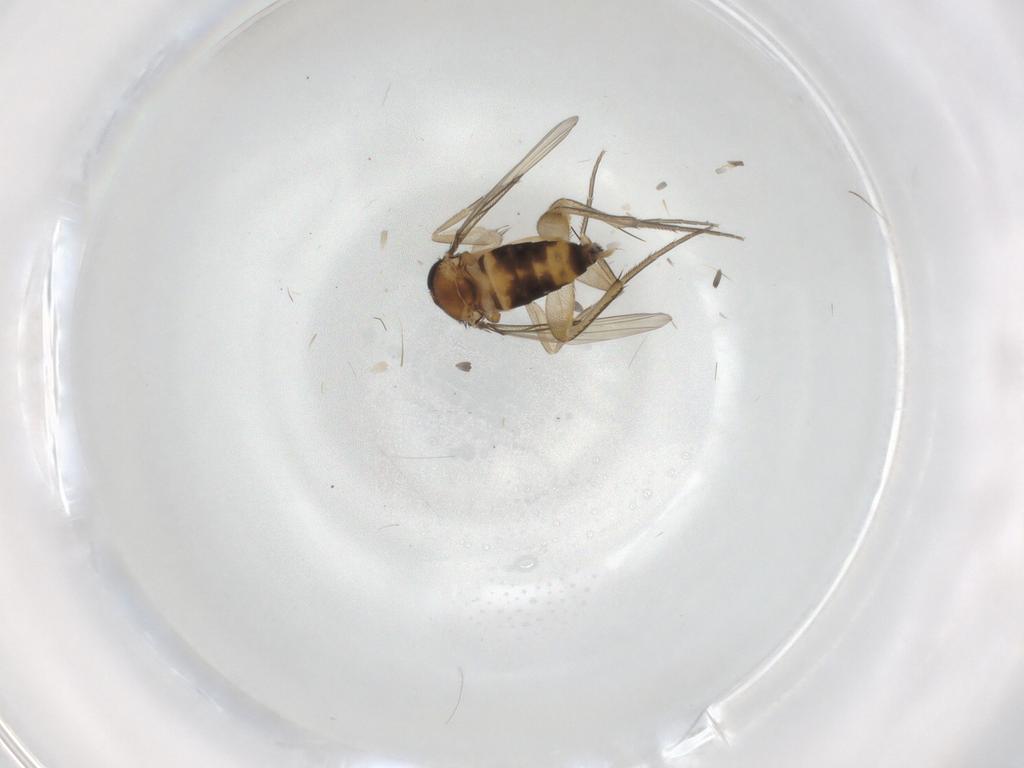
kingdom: Animalia
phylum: Arthropoda
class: Insecta
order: Diptera
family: Phoridae
